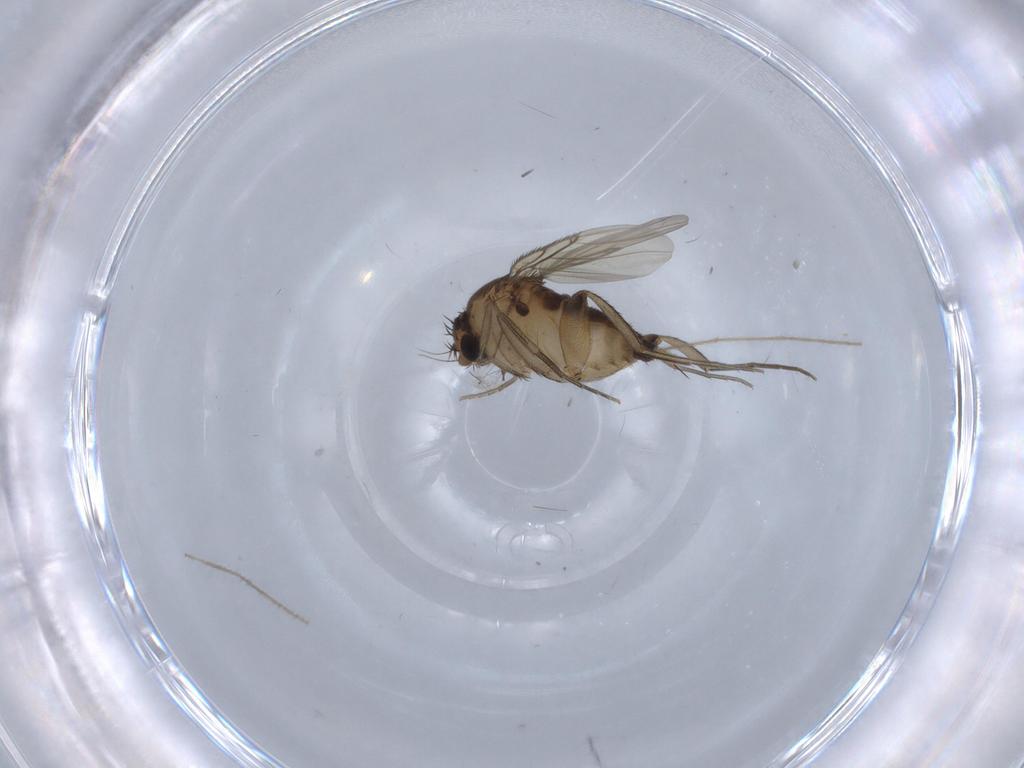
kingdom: Animalia
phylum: Arthropoda
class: Insecta
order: Diptera
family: Chironomidae
